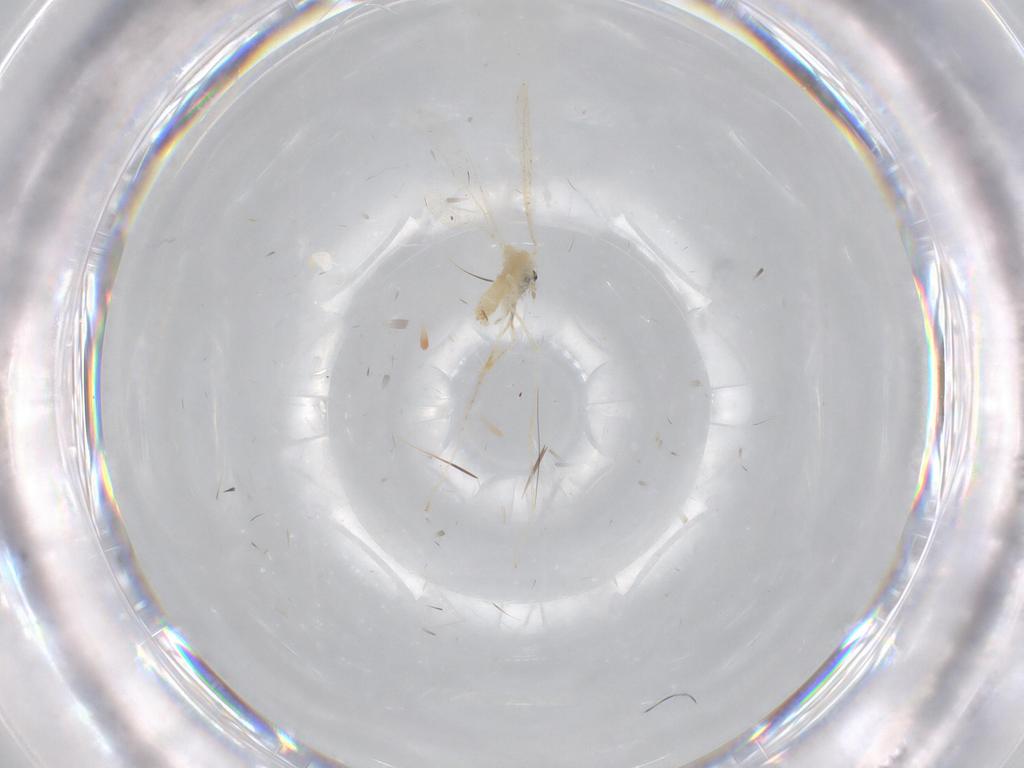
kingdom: Animalia
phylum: Arthropoda
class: Insecta
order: Diptera
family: Cecidomyiidae
